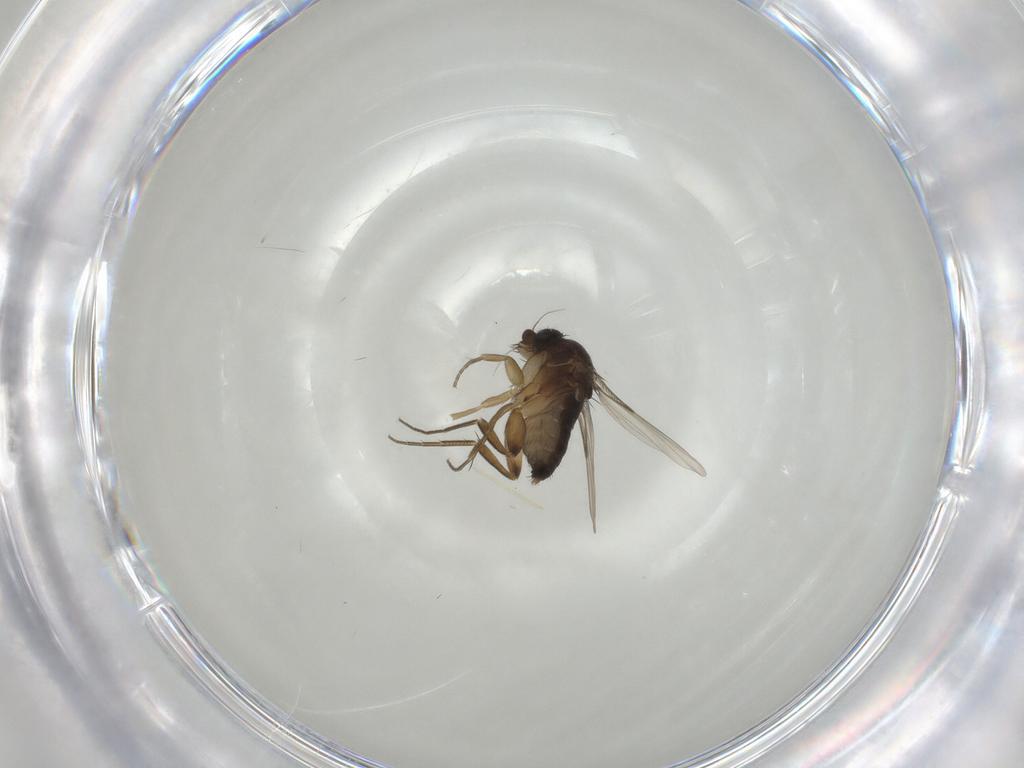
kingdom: Animalia
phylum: Arthropoda
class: Insecta
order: Diptera
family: Phoridae
